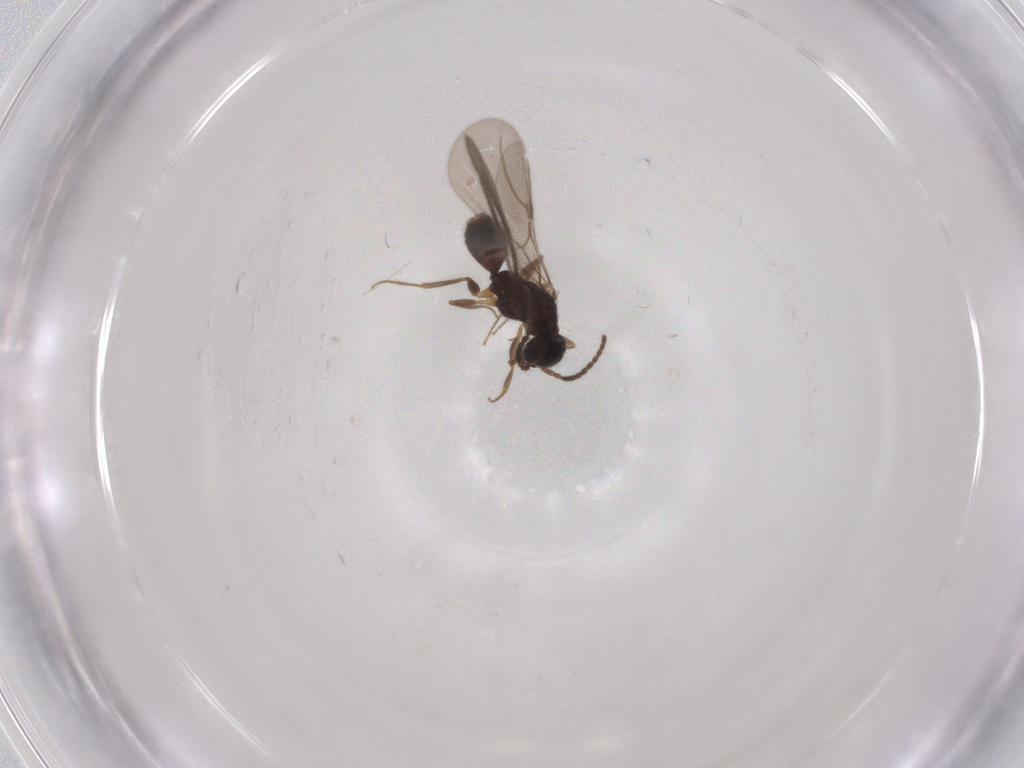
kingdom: Animalia
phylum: Arthropoda
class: Insecta
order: Hymenoptera
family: Bethylidae
